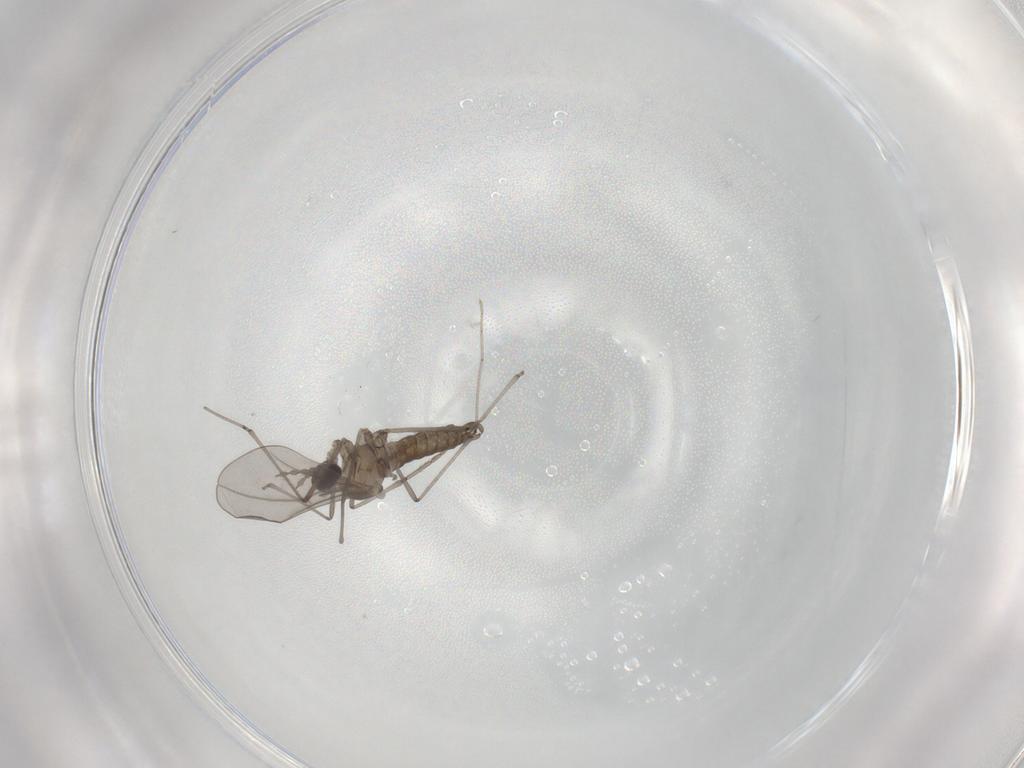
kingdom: Animalia
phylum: Arthropoda
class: Insecta
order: Diptera
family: Cecidomyiidae
